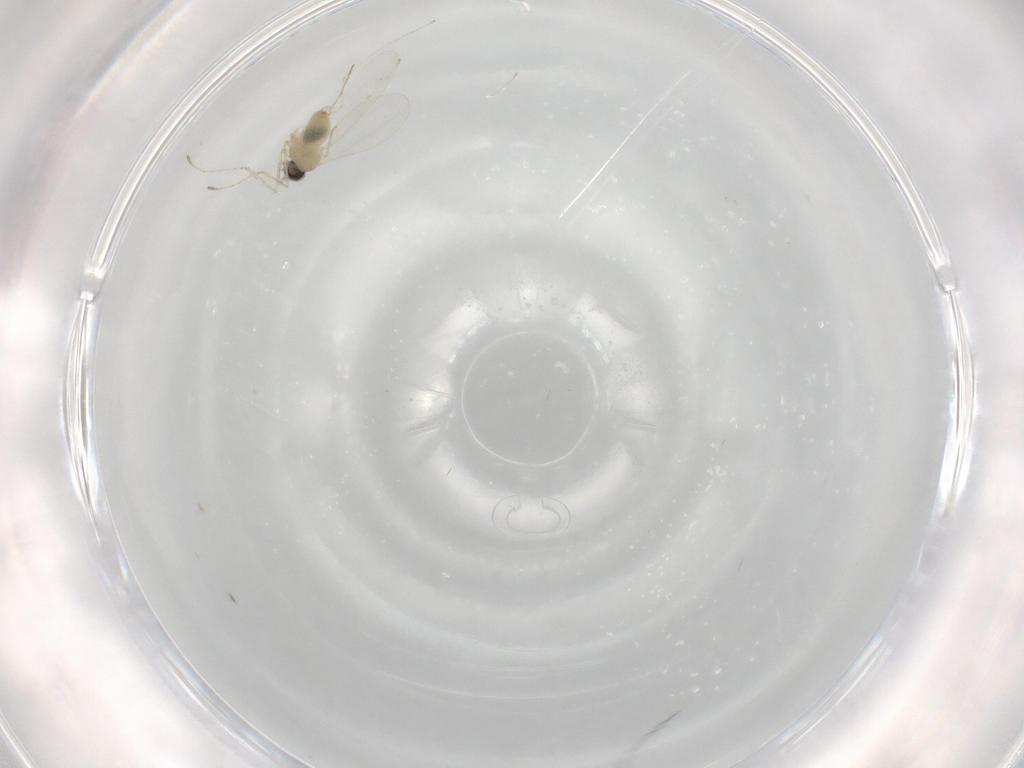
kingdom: Animalia
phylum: Arthropoda
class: Insecta
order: Diptera
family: Cecidomyiidae
